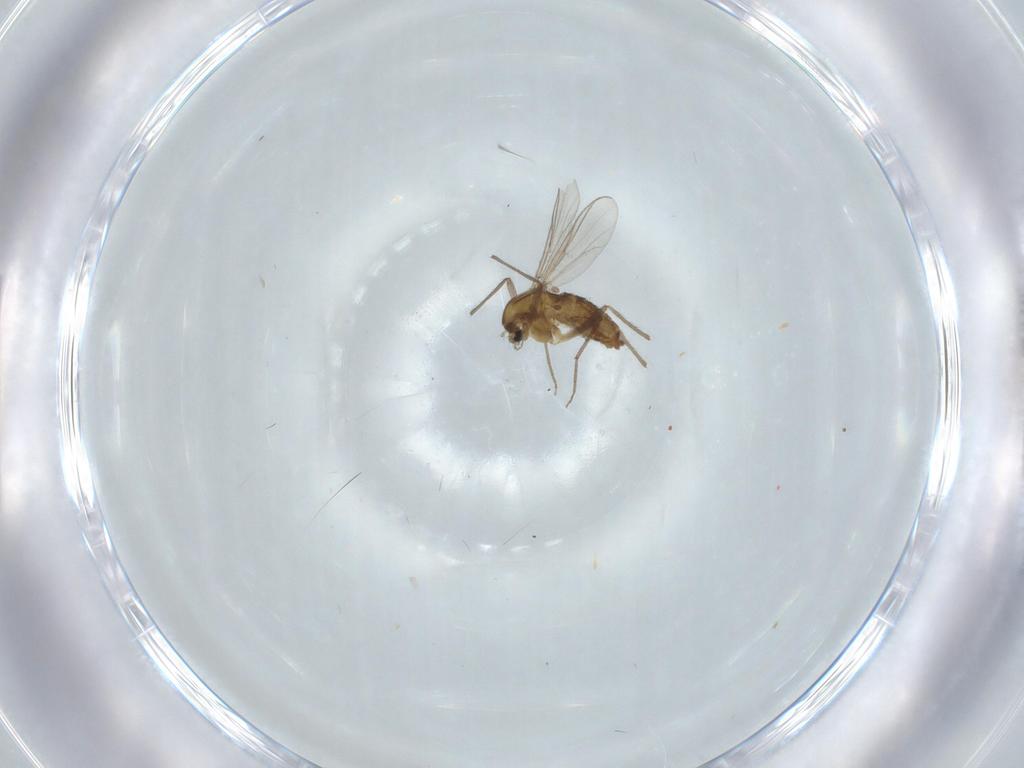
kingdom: Animalia
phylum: Arthropoda
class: Insecta
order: Diptera
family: Chironomidae
